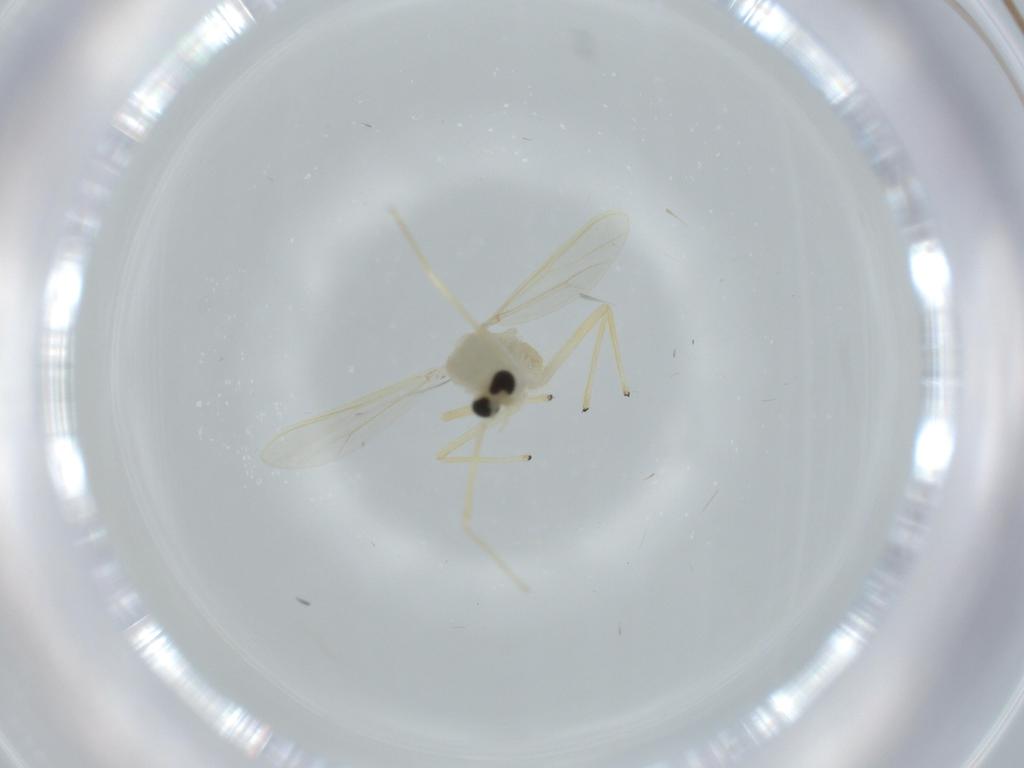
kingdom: Animalia
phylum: Arthropoda
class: Insecta
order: Diptera
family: Chironomidae
